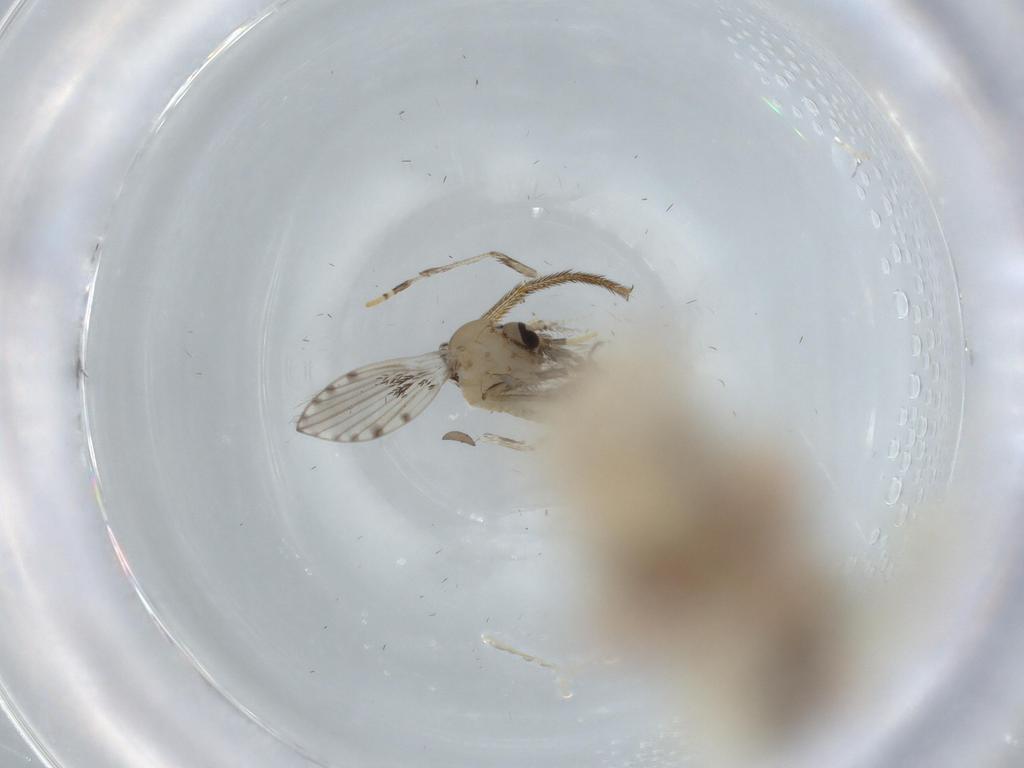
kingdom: Animalia
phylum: Arthropoda
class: Insecta
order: Diptera
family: Psychodidae
